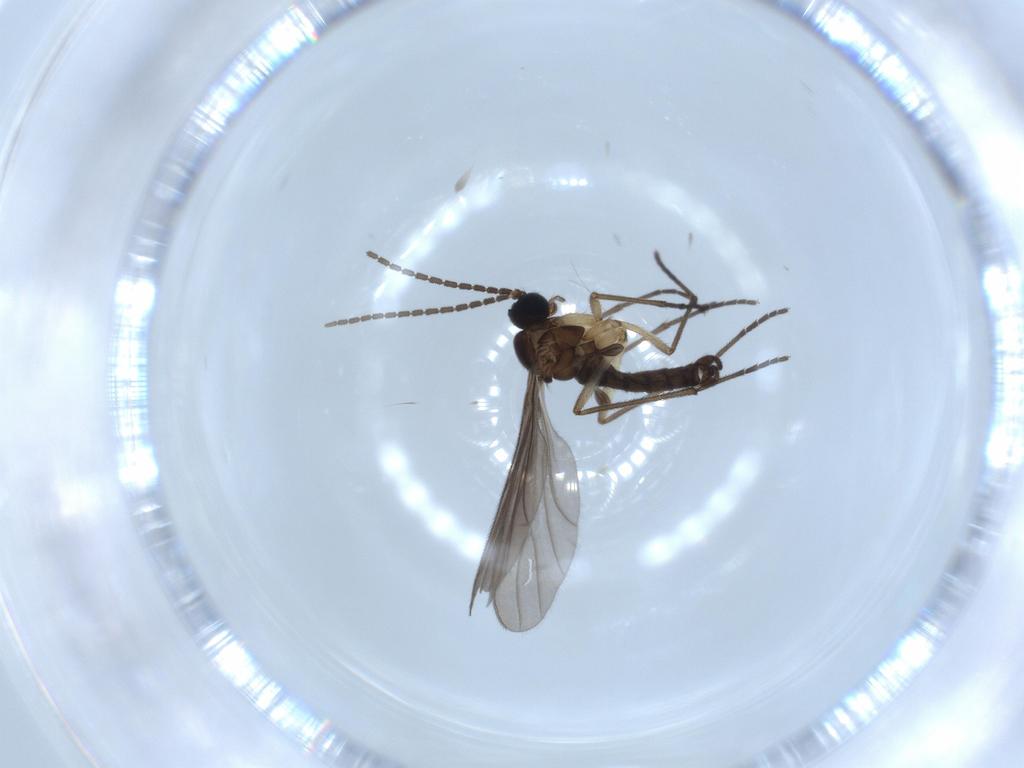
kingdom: Animalia
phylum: Arthropoda
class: Insecta
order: Diptera
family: Sciaridae
